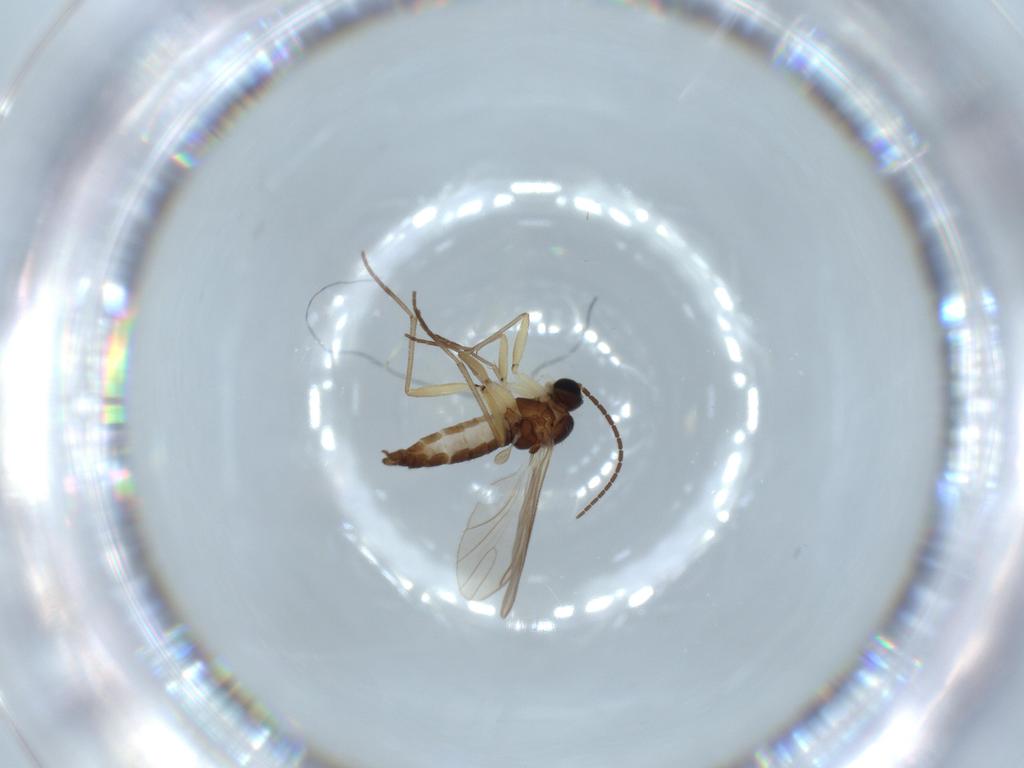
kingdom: Animalia
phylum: Arthropoda
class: Insecta
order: Diptera
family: Sciaridae
